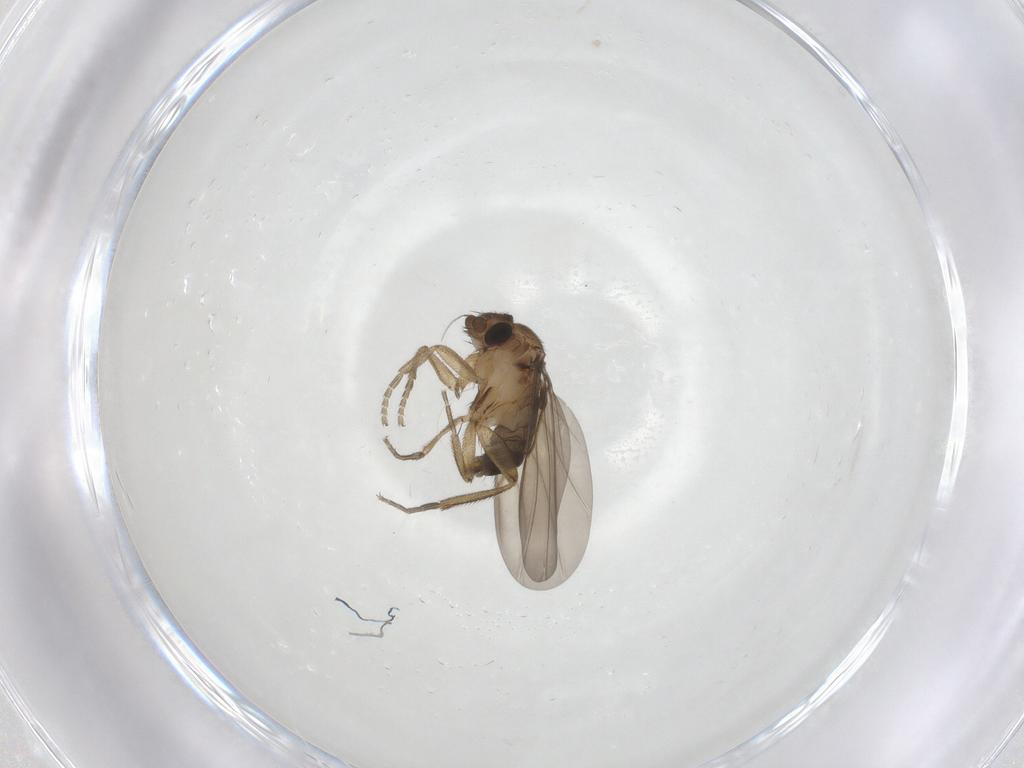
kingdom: Animalia
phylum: Arthropoda
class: Insecta
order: Diptera
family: Phoridae
